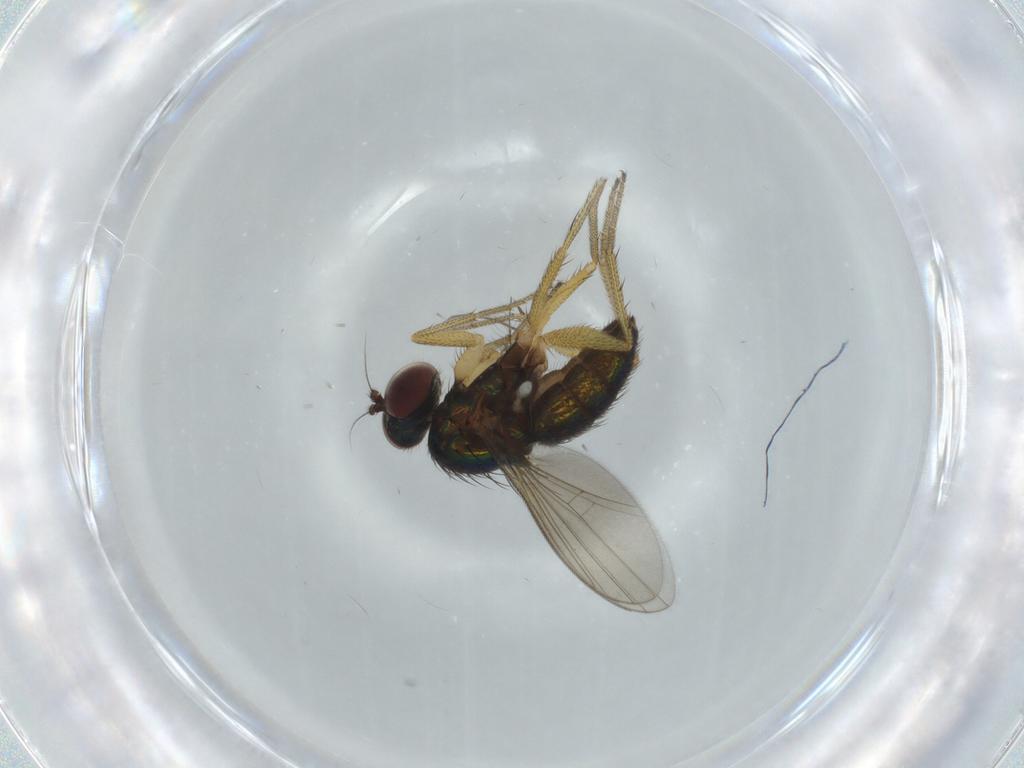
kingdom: Animalia
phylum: Arthropoda
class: Insecta
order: Diptera
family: Dolichopodidae
